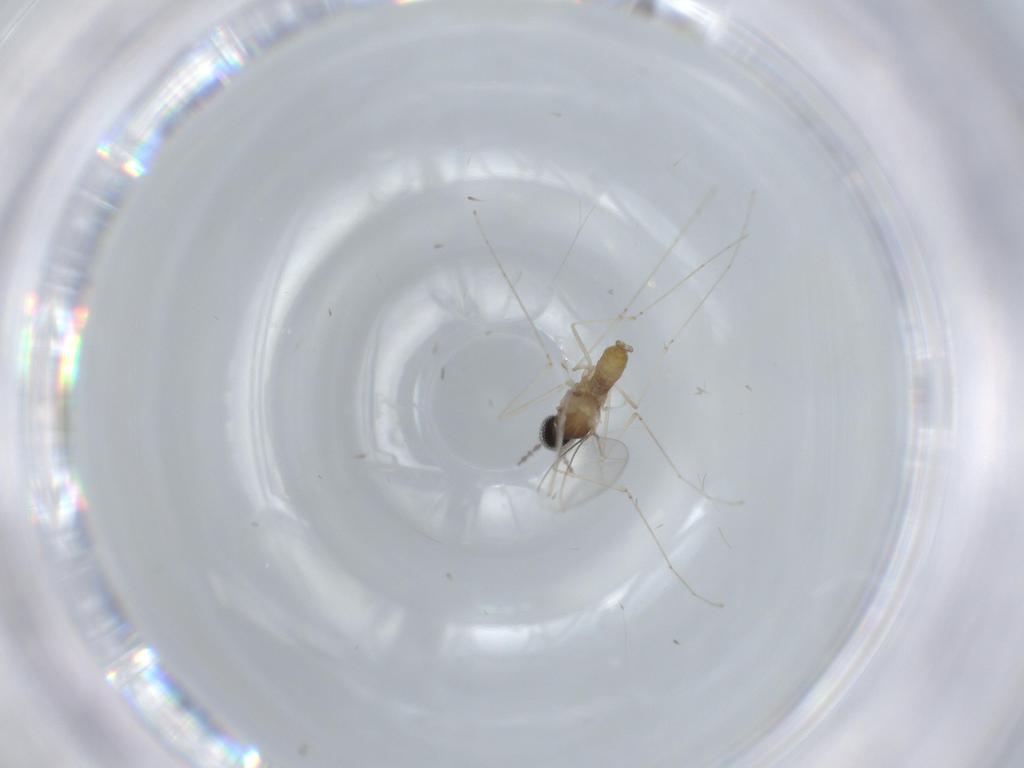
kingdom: Animalia
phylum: Arthropoda
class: Insecta
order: Diptera
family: Cecidomyiidae
